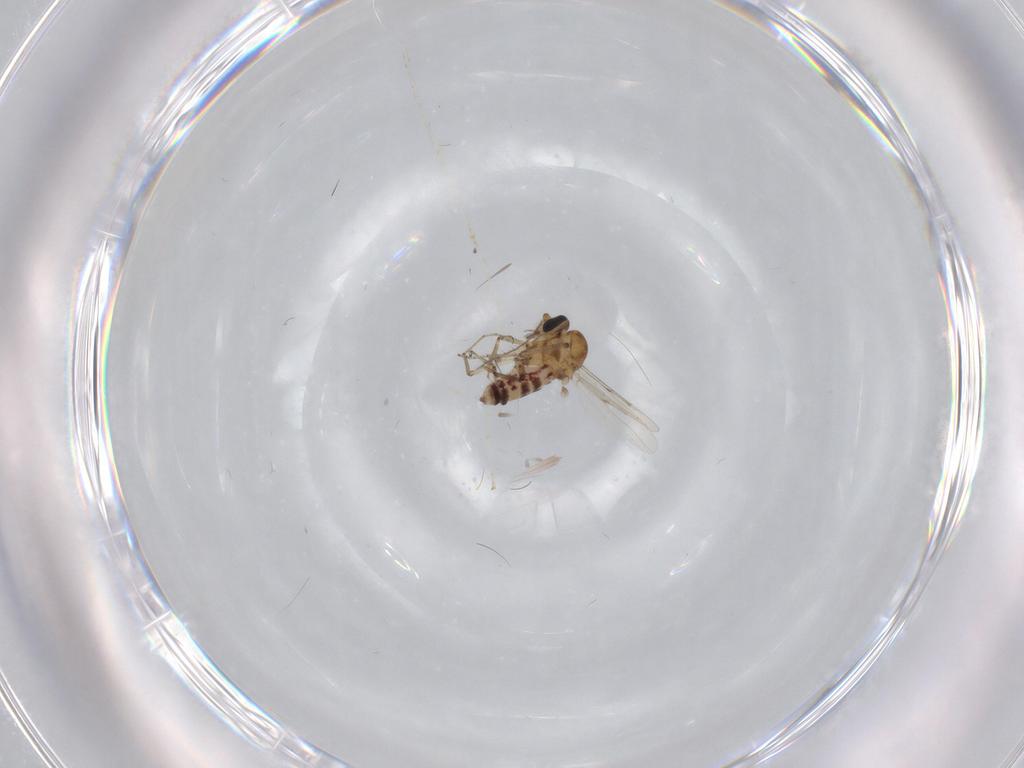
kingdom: Animalia
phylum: Arthropoda
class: Insecta
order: Diptera
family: Ceratopogonidae
